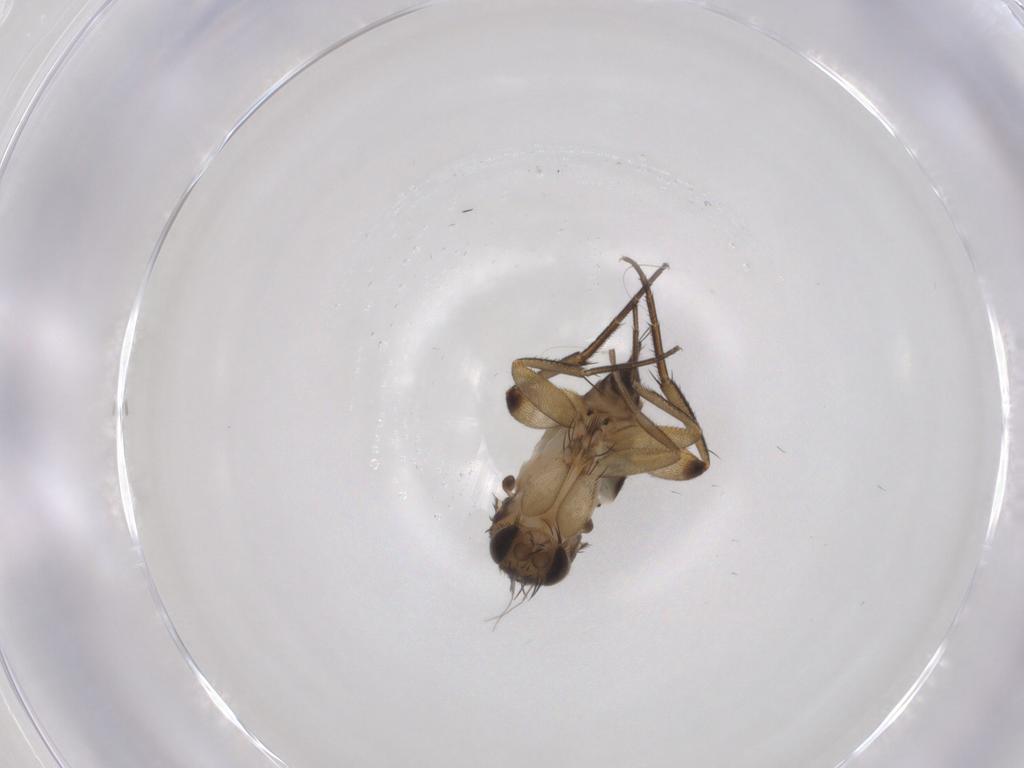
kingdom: Animalia
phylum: Arthropoda
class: Insecta
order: Diptera
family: Phoridae
